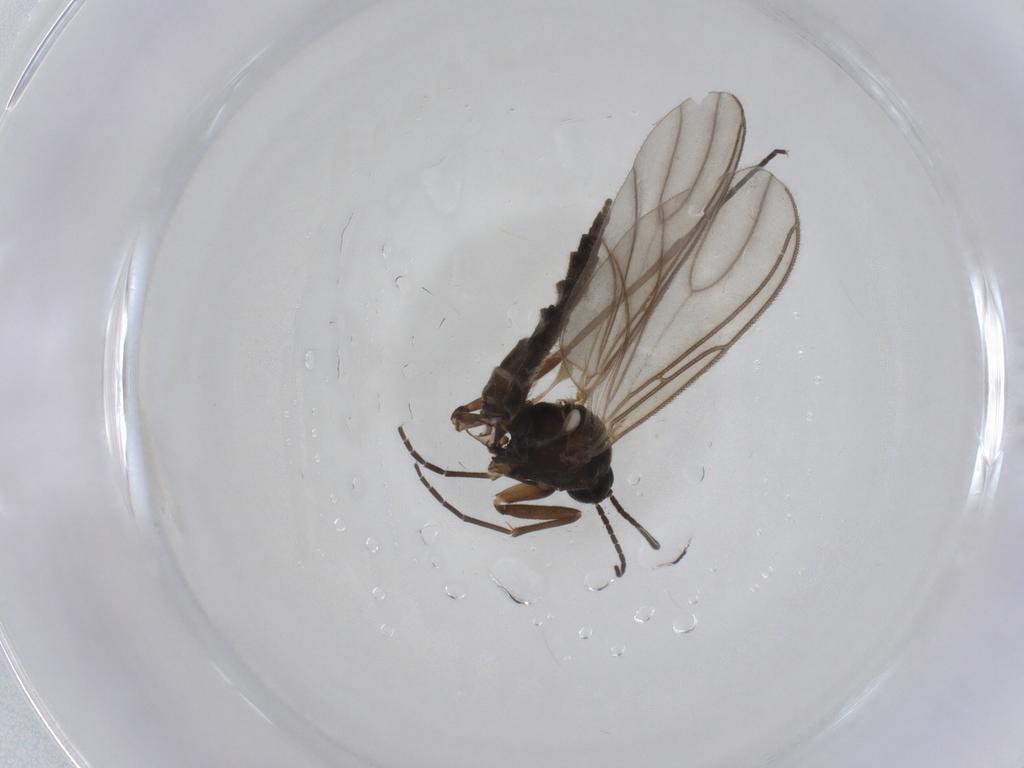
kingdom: Animalia
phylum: Arthropoda
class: Insecta
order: Diptera
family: Sciaridae
